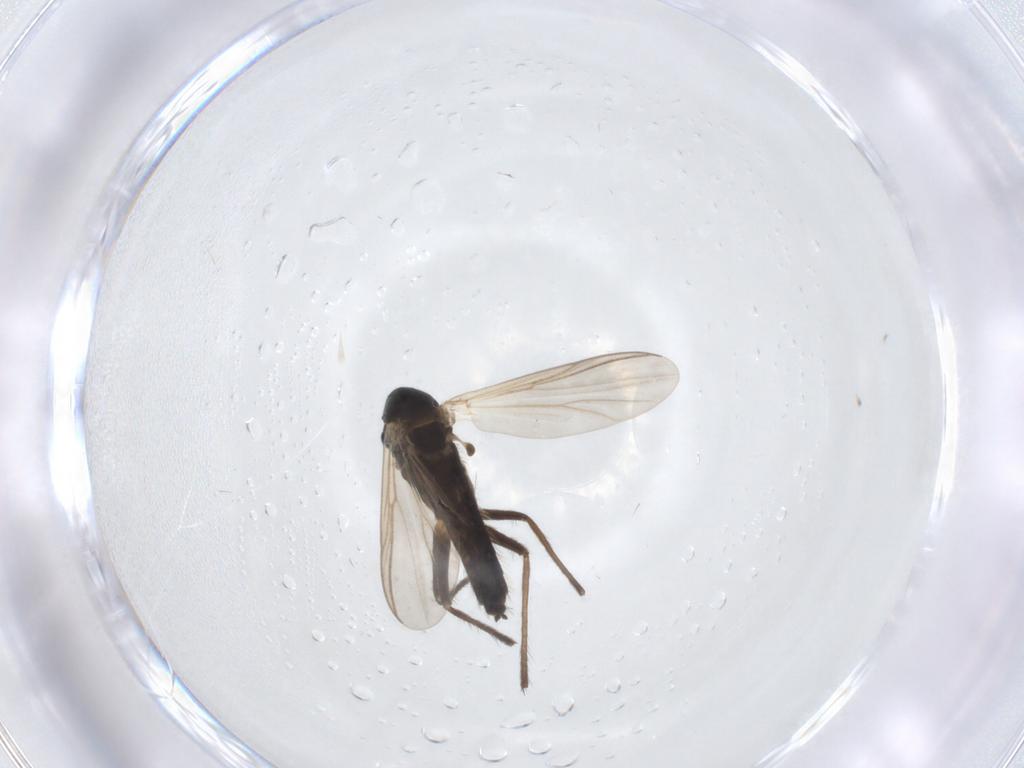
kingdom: Animalia
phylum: Arthropoda
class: Insecta
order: Diptera
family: Chironomidae
